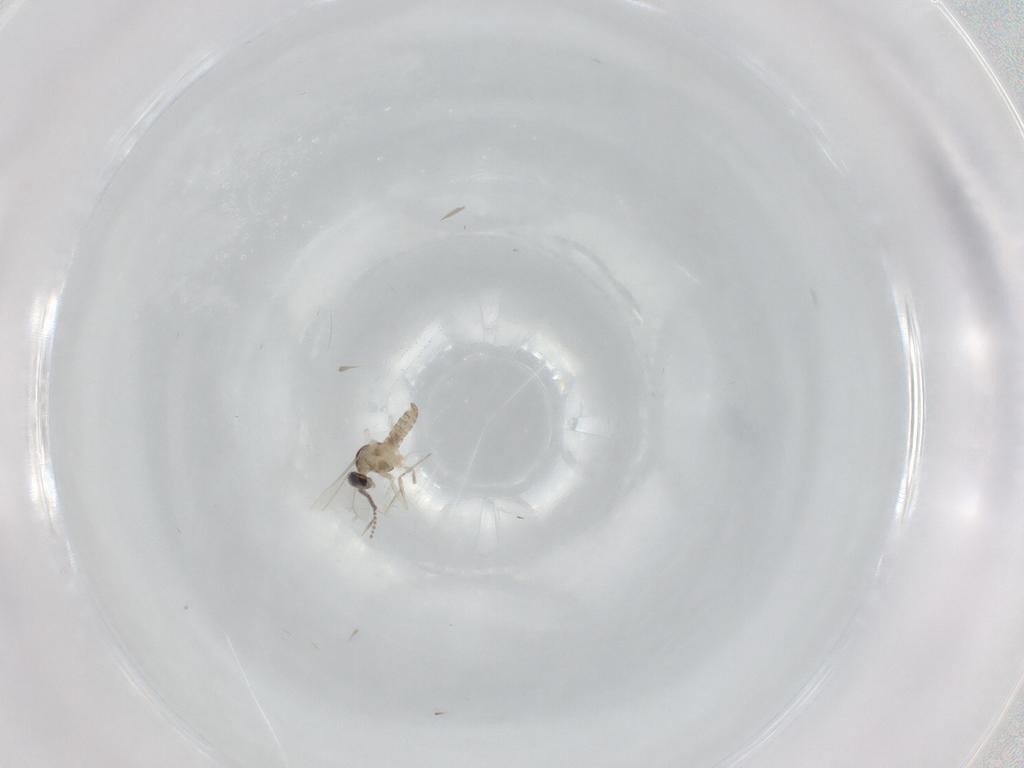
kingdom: Animalia
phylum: Arthropoda
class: Insecta
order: Diptera
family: Cecidomyiidae
